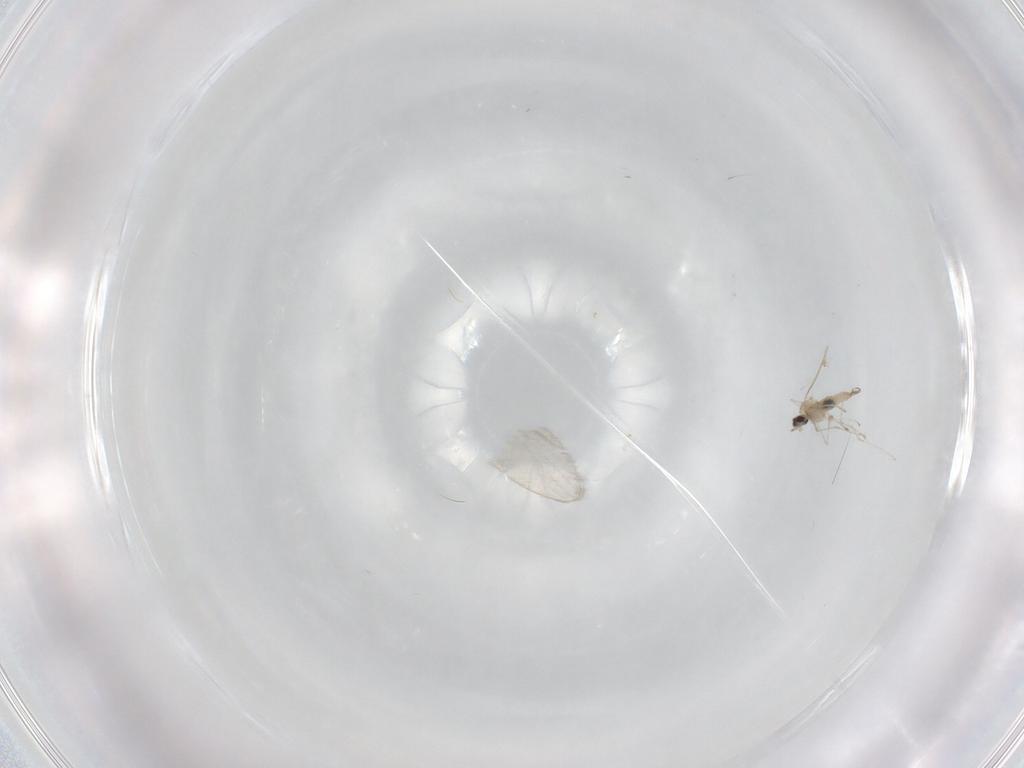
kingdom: Animalia
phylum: Arthropoda
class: Insecta
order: Diptera
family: Cecidomyiidae
